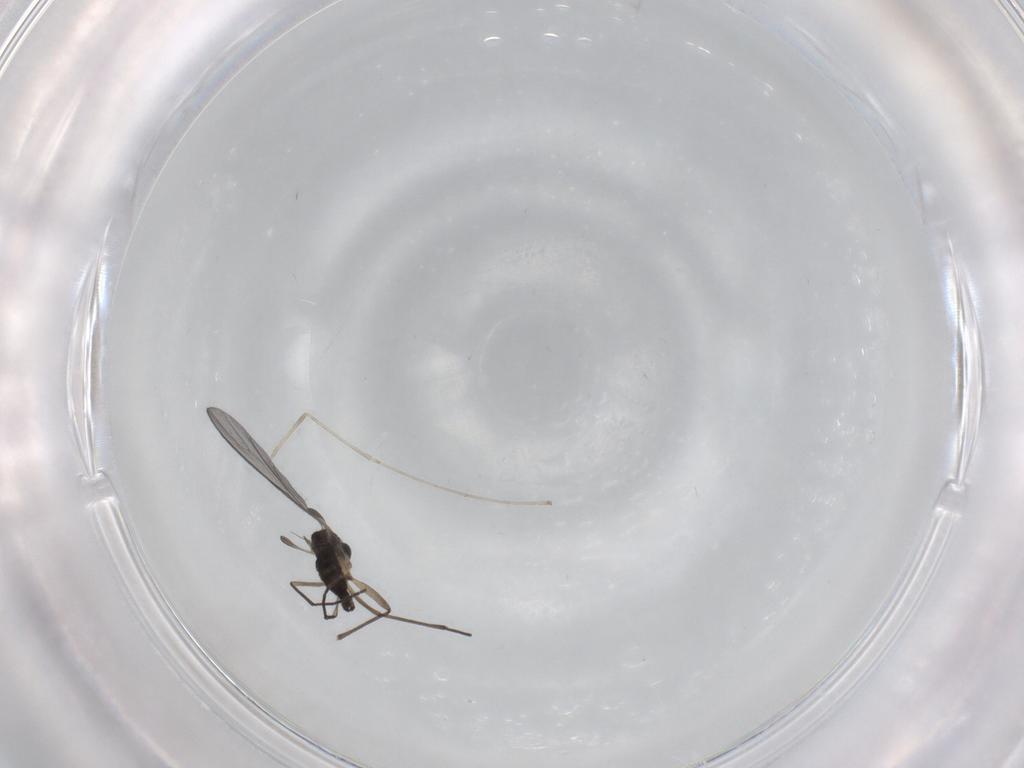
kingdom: Animalia
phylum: Arthropoda
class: Insecta
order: Diptera
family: Sciaridae
